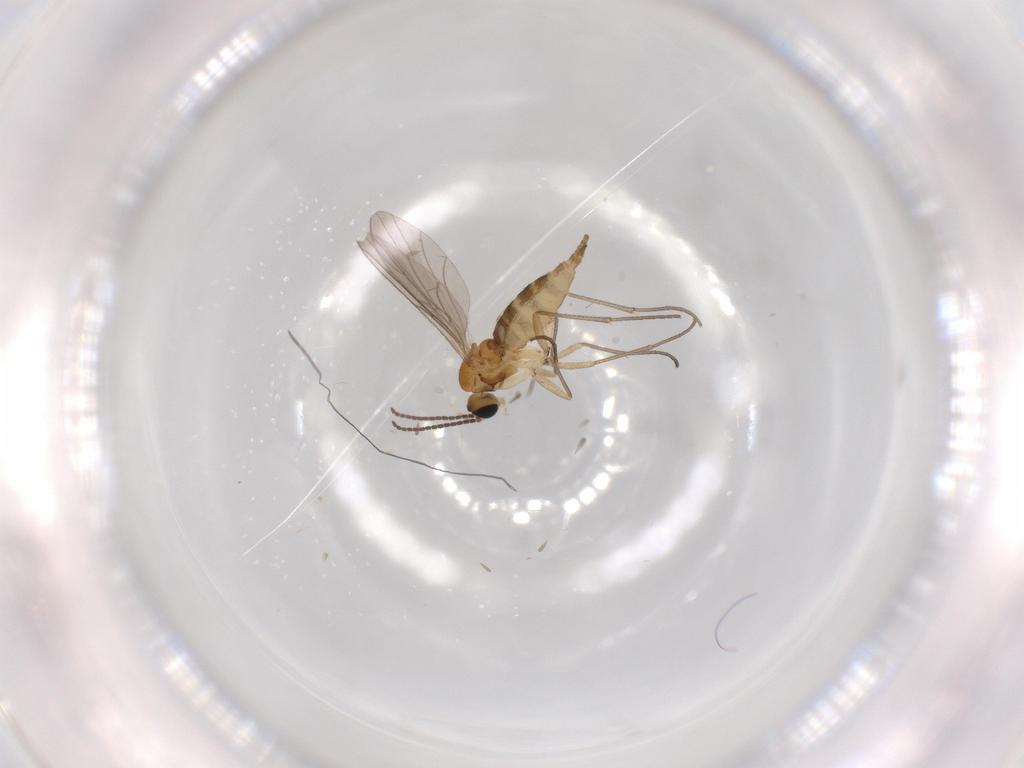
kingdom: Animalia
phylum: Arthropoda
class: Insecta
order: Diptera
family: Sciaridae
